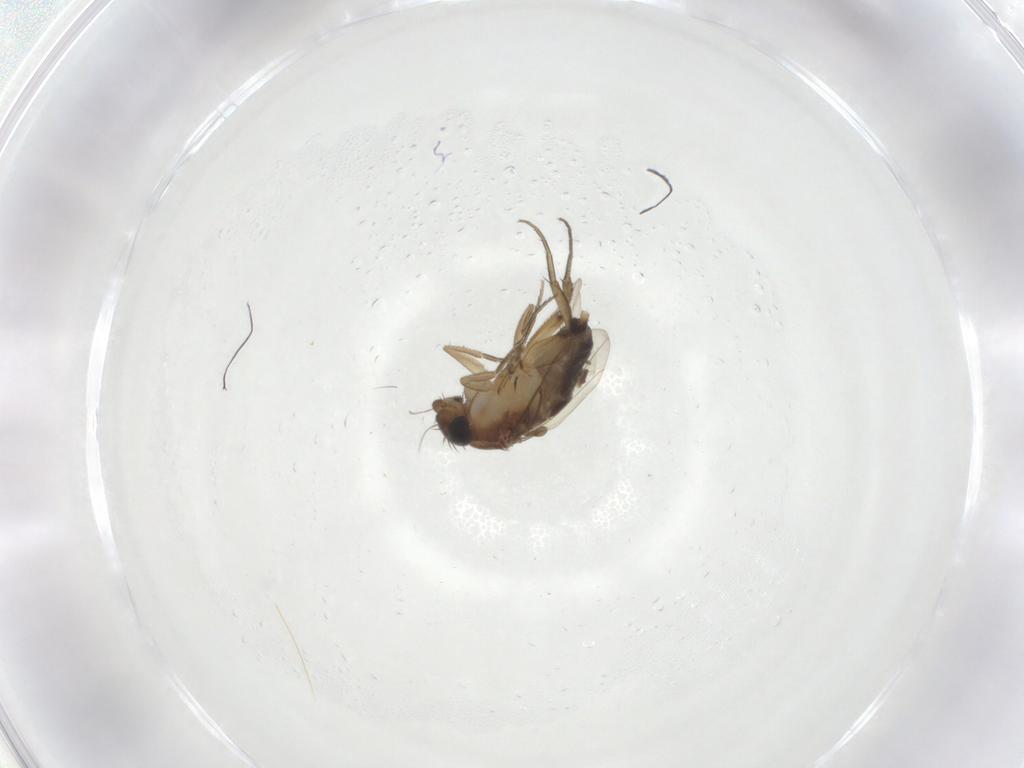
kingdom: Animalia
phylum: Arthropoda
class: Insecta
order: Diptera
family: Phoridae
